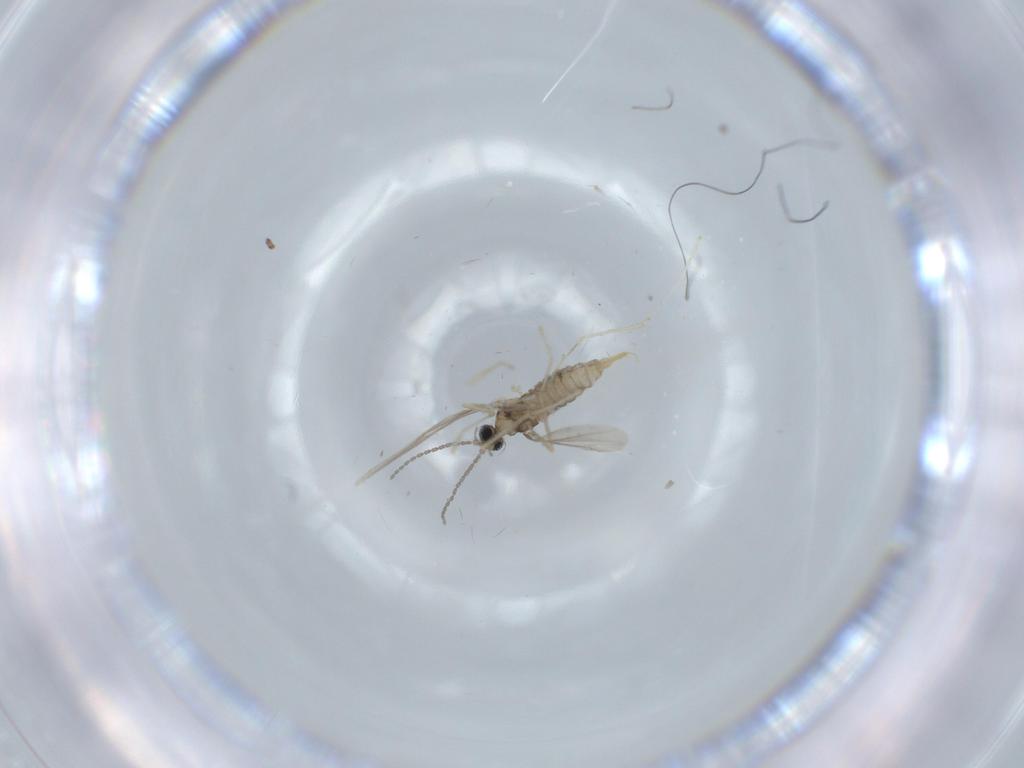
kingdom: Animalia
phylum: Arthropoda
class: Insecta
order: Diptera
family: Cecidomyiidae
